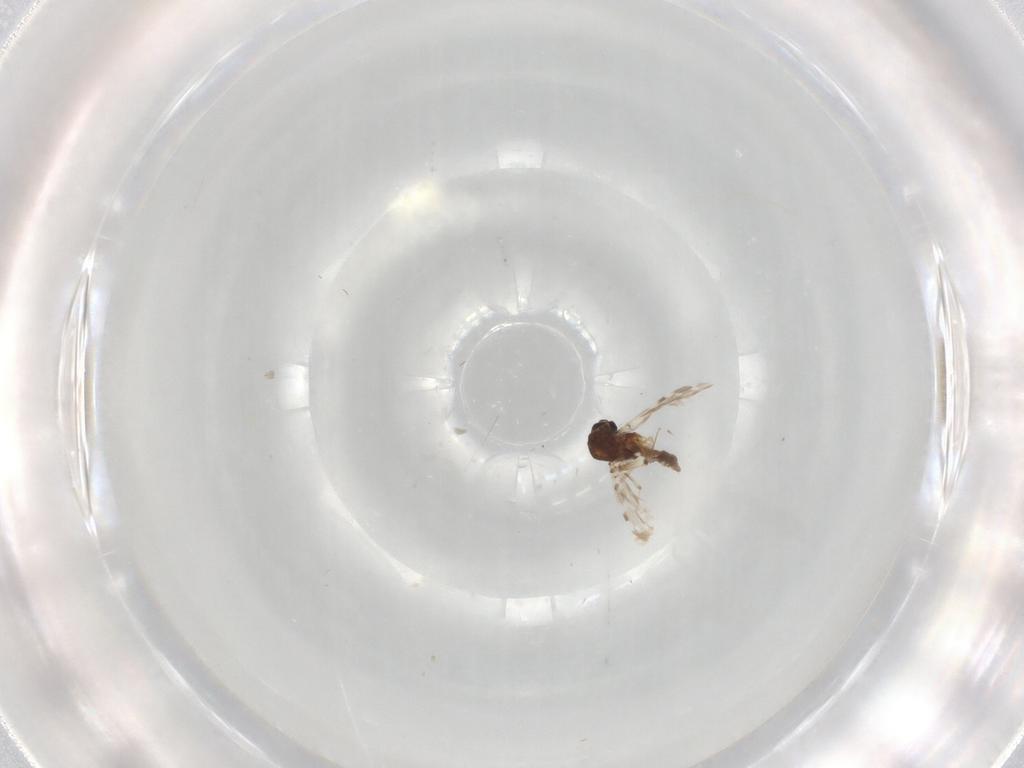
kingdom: Animalia
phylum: Arthropoda
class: Insecta
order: Diptera
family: Ceratopogonidae
